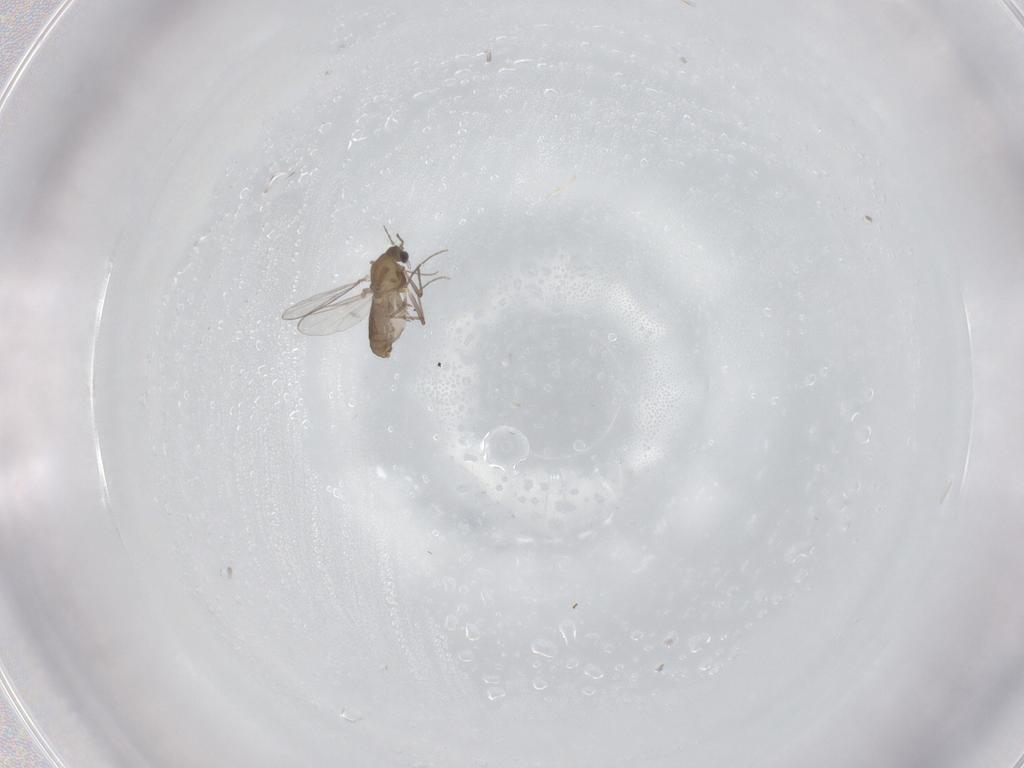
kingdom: Animalia
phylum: Arthropoda
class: Insecta
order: Diptera
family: Chironomidae
